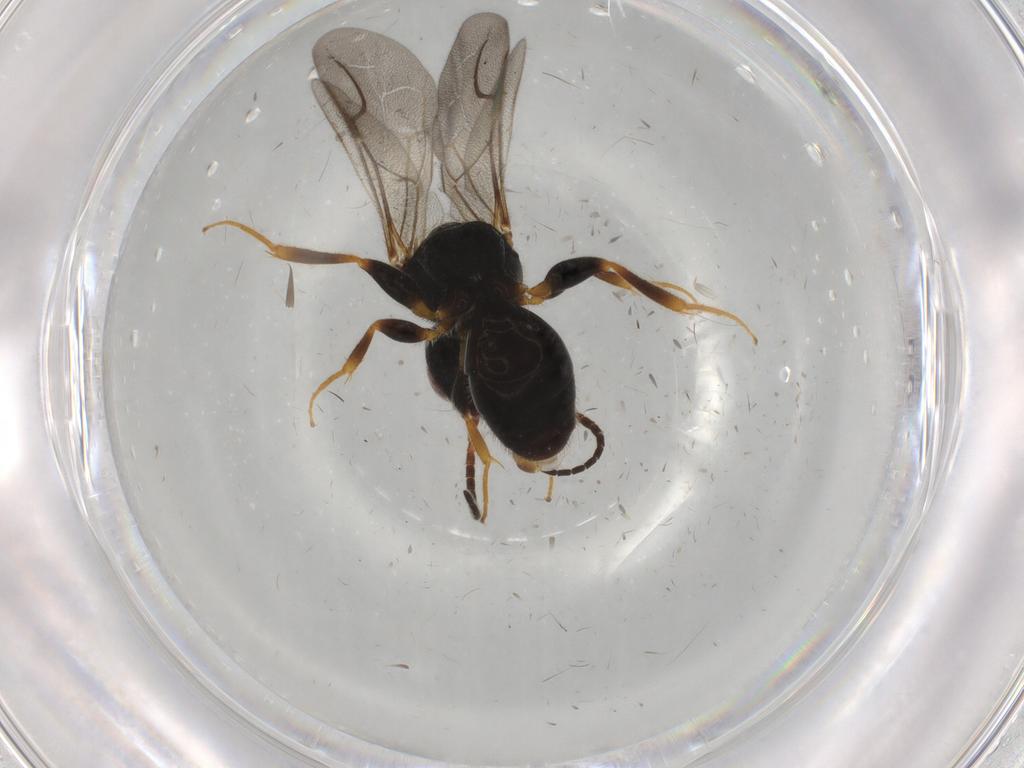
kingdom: Animalia
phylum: Arthropoda
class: Insecta
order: Hymenoptera
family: Bethylidae
